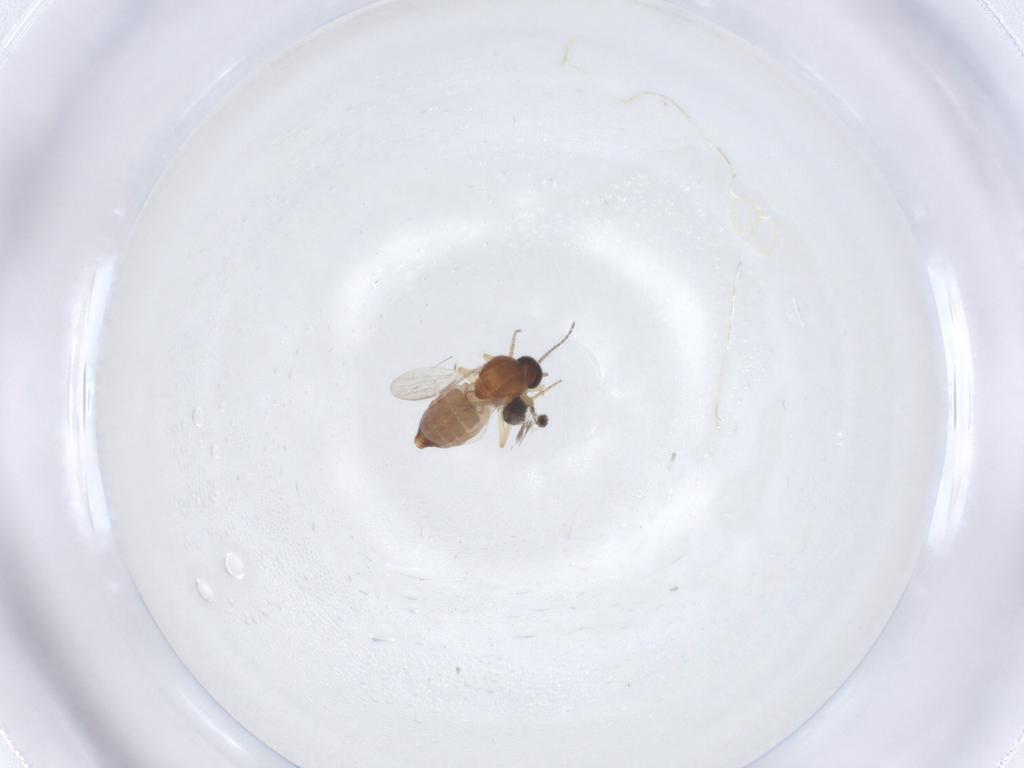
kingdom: Animalia
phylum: Arthropoda
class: Insecta
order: Diptera
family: Ceratopogonidae
